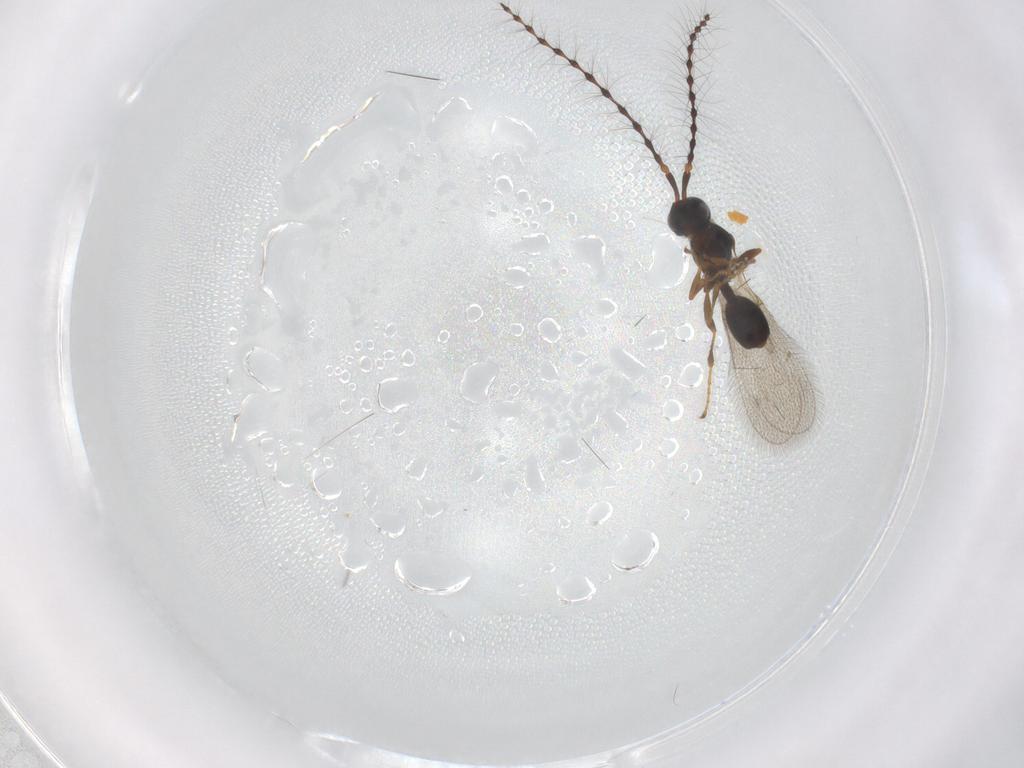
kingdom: Animalia
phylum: Arthropoda
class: Insecta
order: Hymenoptera
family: Diapriidae
